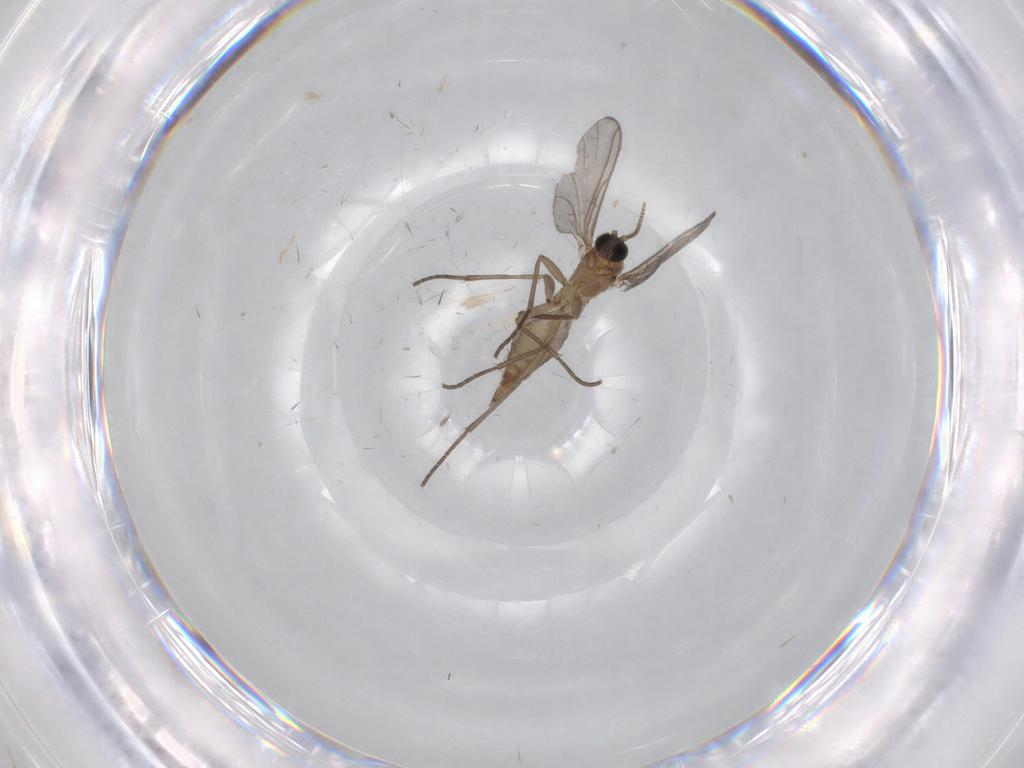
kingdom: Animalia
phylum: Arthropoda
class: Insecta
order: Diptera
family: Sciaridae
